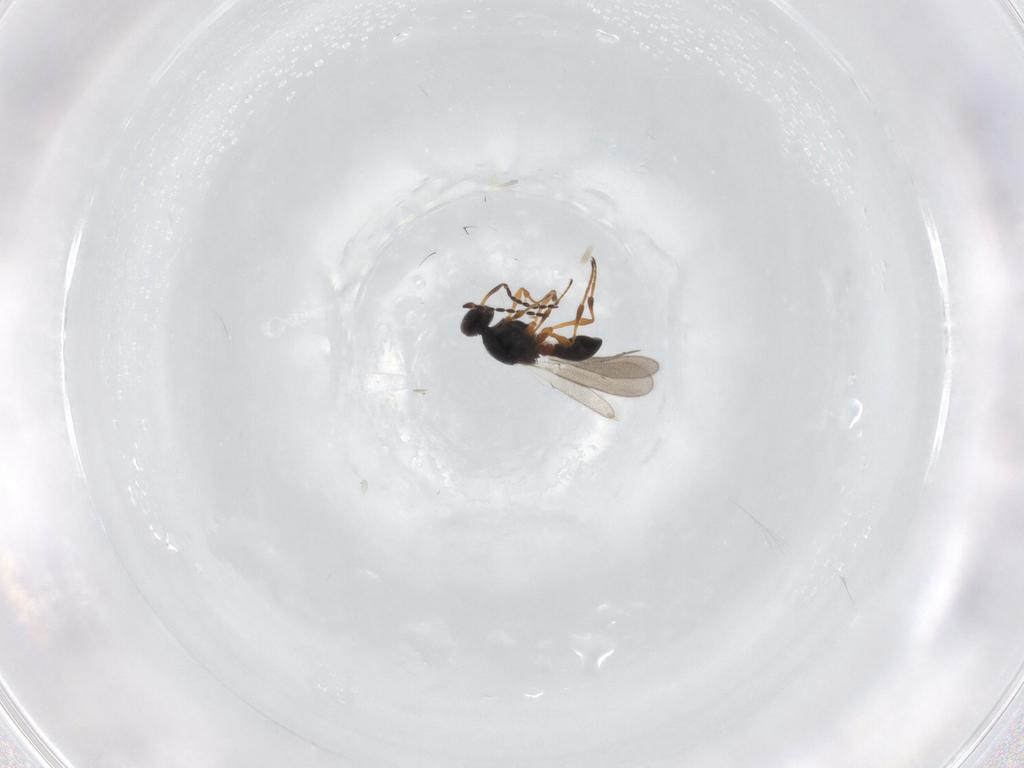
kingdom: Animalia
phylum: Arthropoda
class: Insecta
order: Hymenoptera
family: Platygastridae
